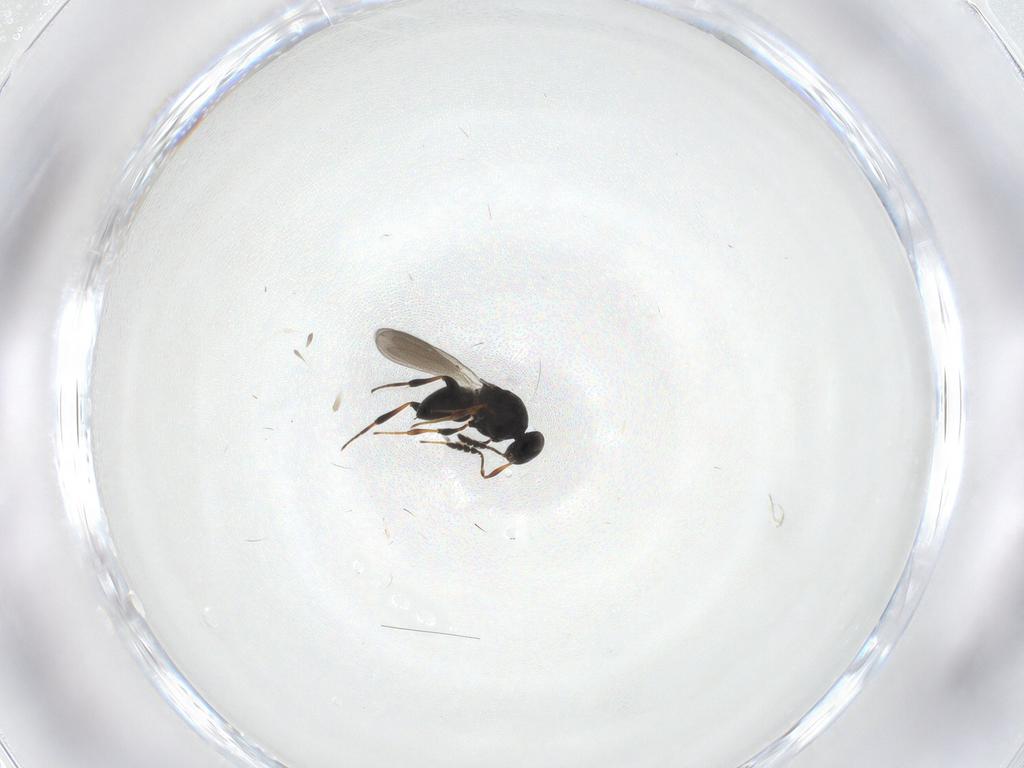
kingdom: Animalia
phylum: Arthropoda
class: Insecta
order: Hymenoptera
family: Platygastridae
